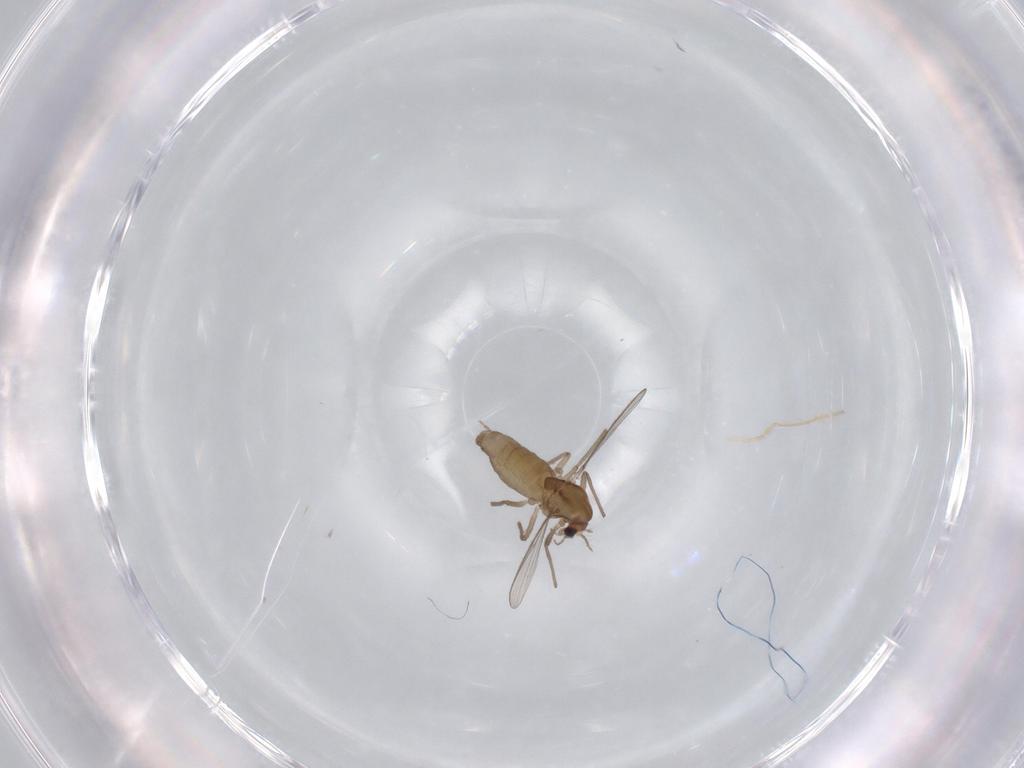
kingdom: Animalia
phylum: Arthropoda
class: Insecta
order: Diptera
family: Chironomidae
